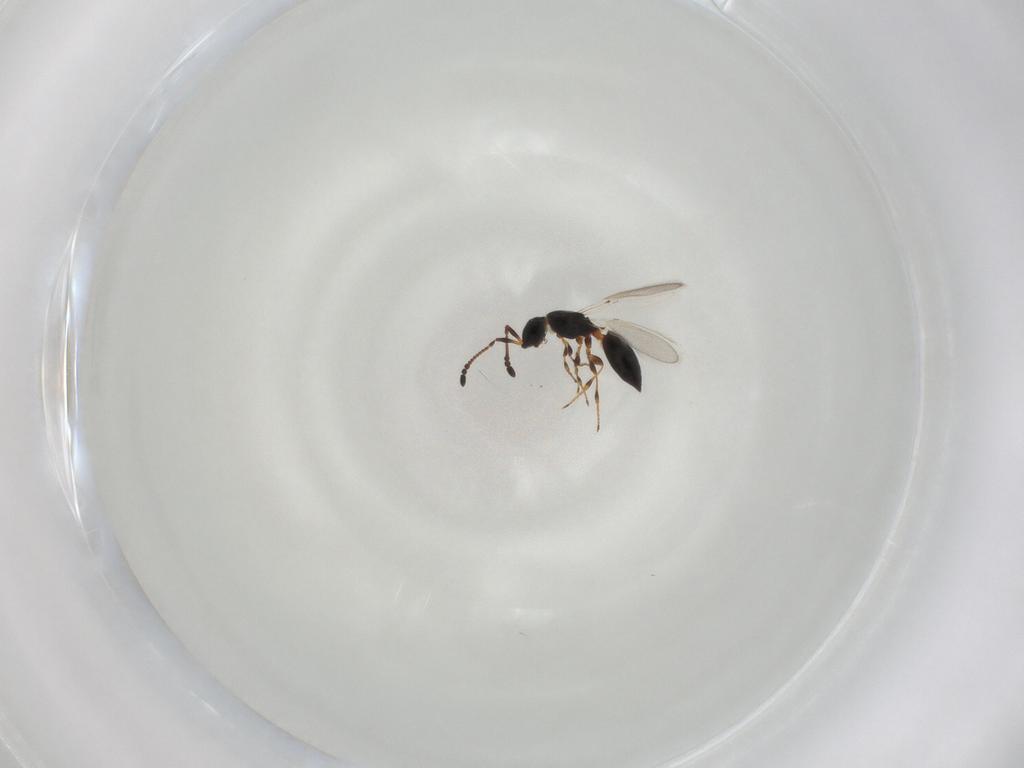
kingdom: Animalia
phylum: Arthropoda
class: Insecta
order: Hymenoptera
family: Diapriidae
